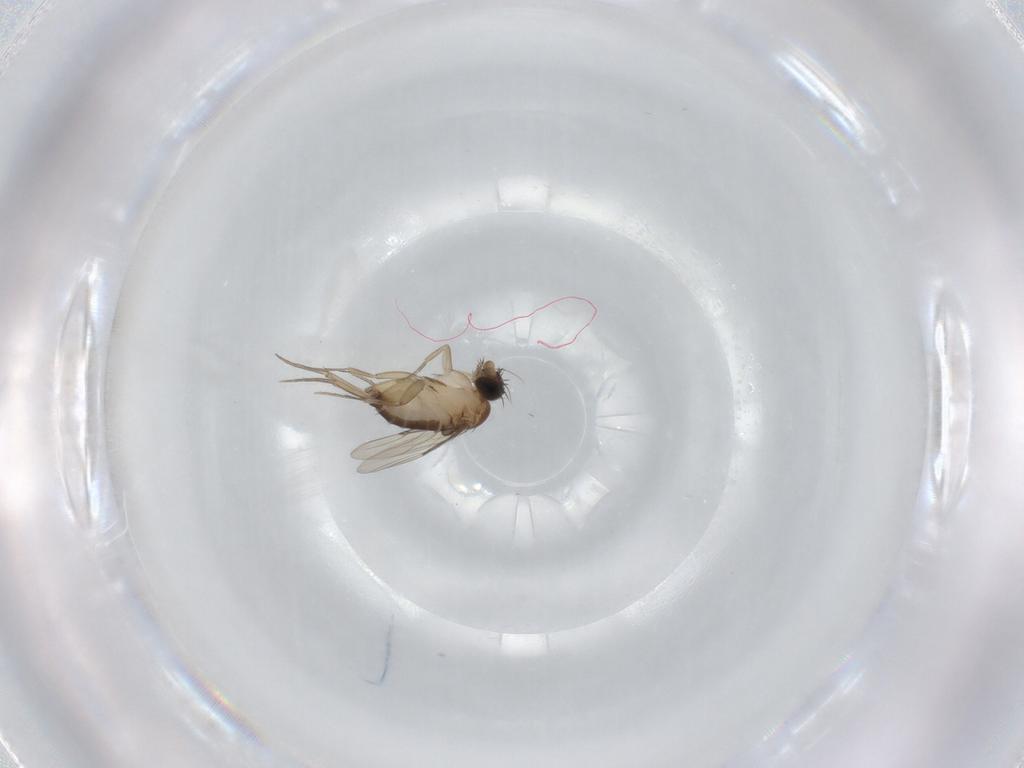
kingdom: Animalia
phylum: Arthropoda
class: Insecta
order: Diptera
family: Phoridae
